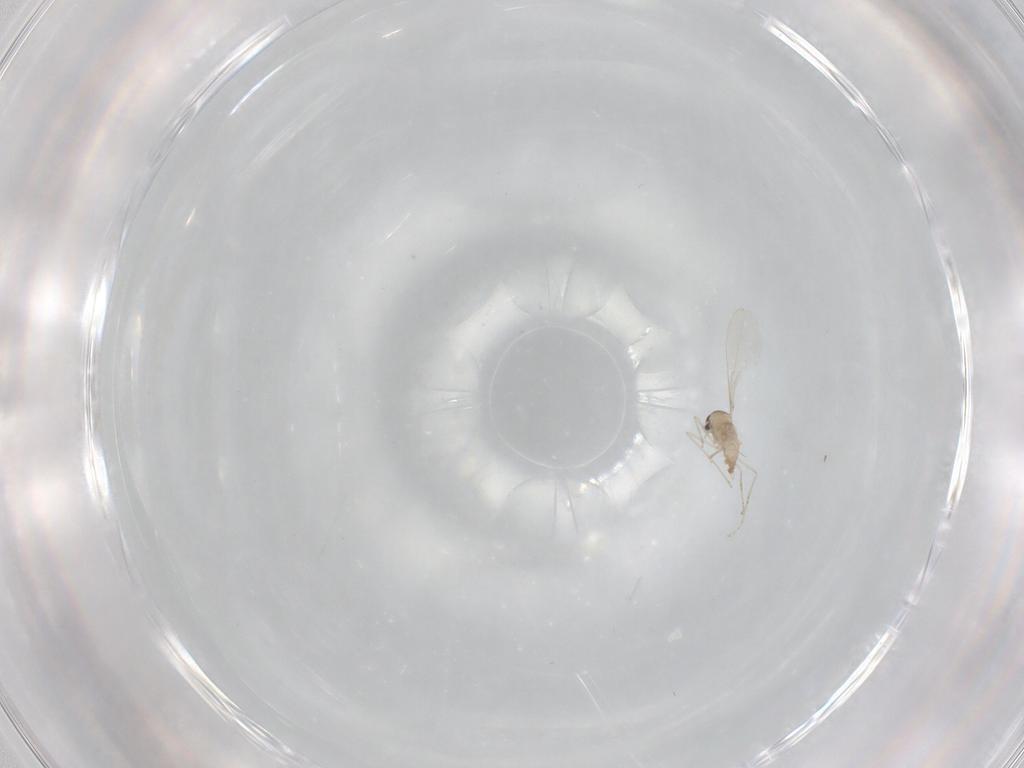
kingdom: Animalia
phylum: Arthropoda
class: Insecta
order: Diptera
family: Cecidomyiidae
